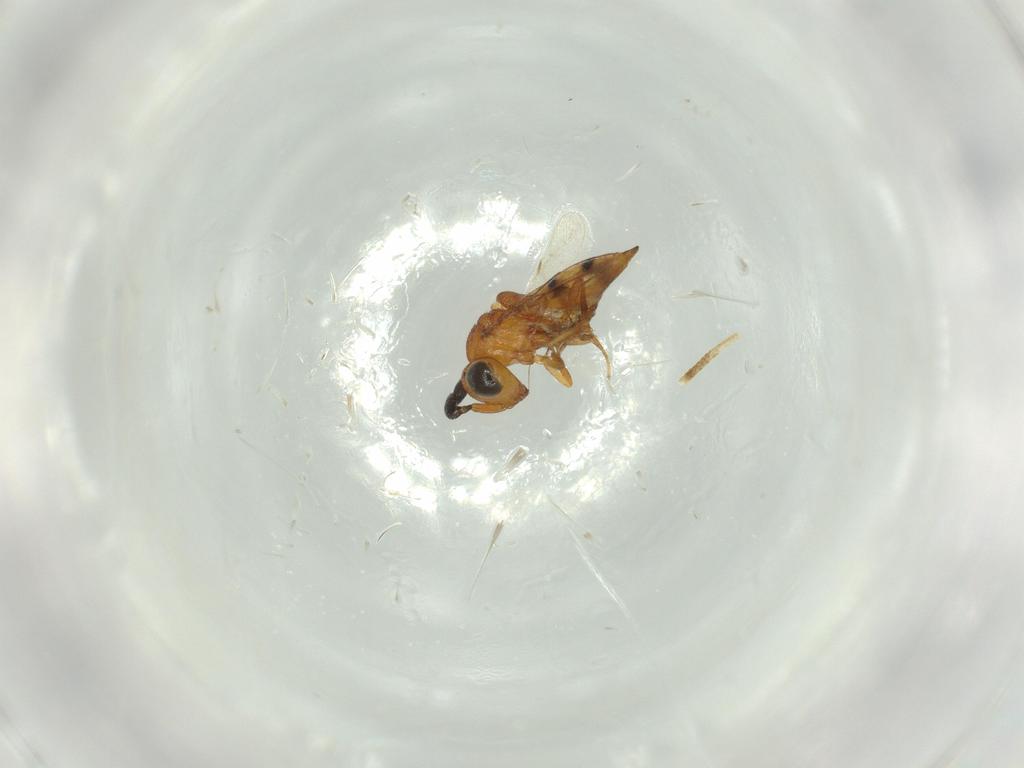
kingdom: Animalia
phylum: Arthropoda
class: Insecta
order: Hymenoptera
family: Scelionidae
